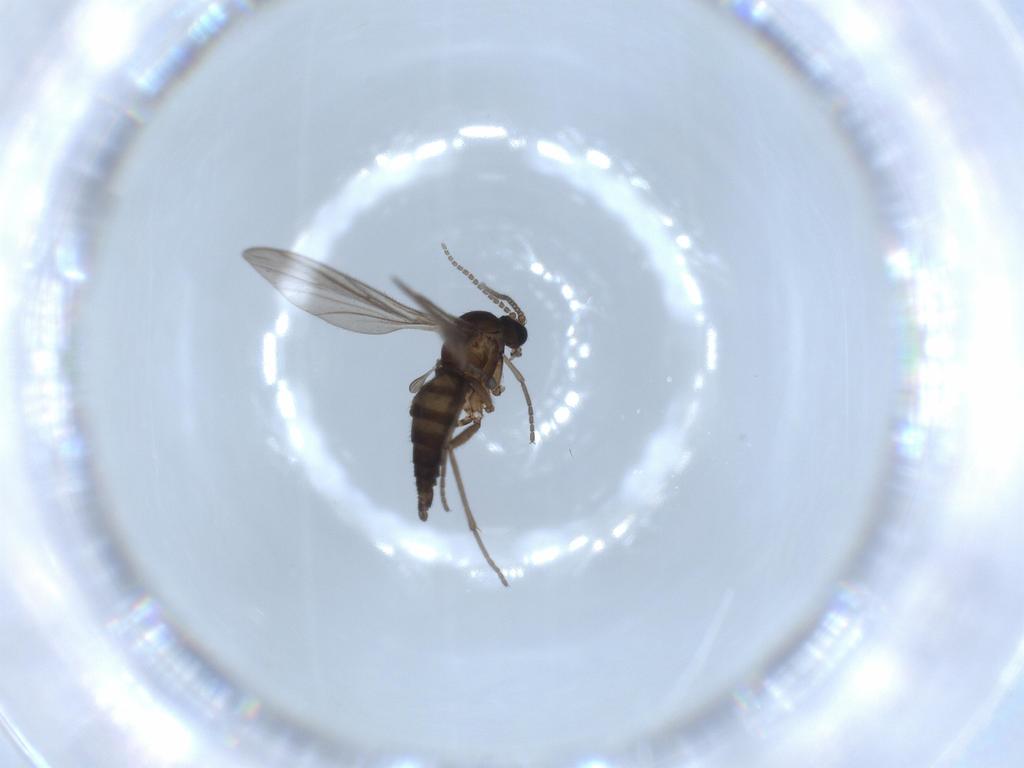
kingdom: Animalia
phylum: Arthropoda
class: Insecta
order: Diptera
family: Sciaridae
